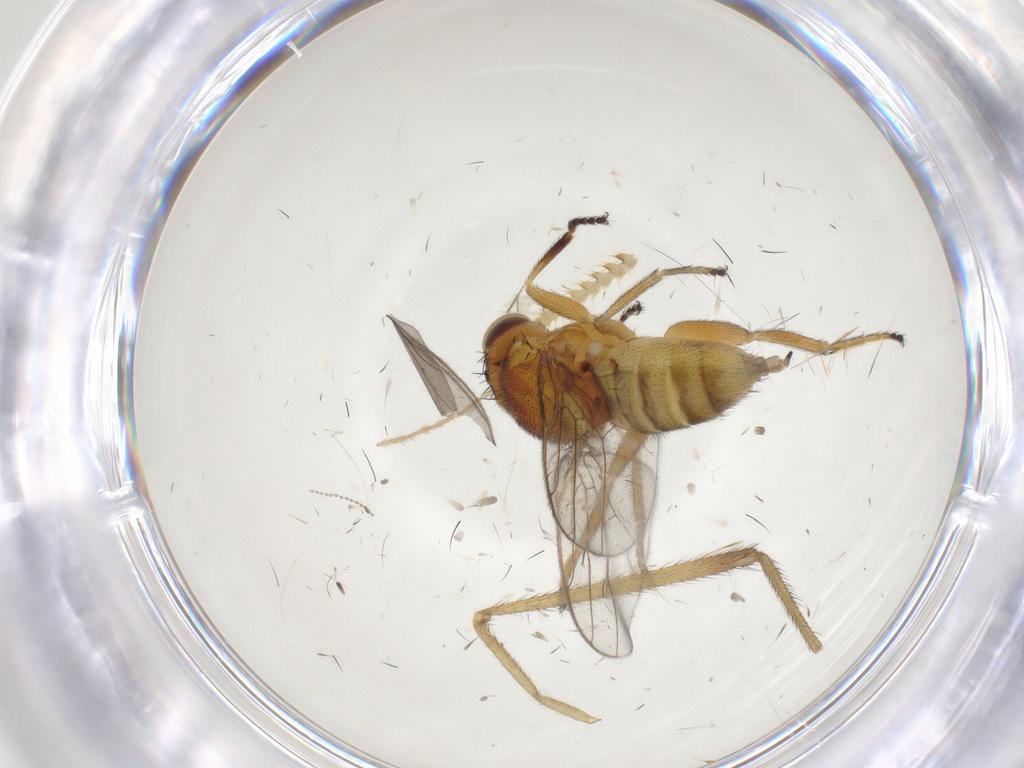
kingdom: Animalia
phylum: Arthropoda
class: Insecta
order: Diptera
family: Chloropidae
